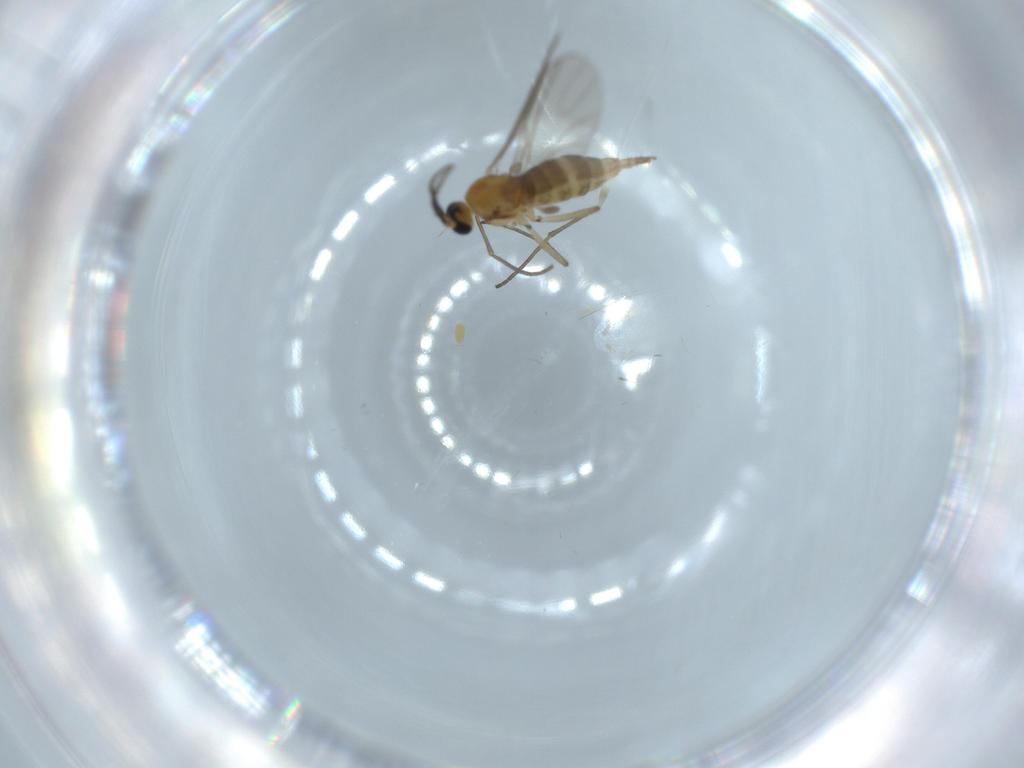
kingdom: Animalia
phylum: Arthropoda
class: Insecta
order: Diptera
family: Sciaridae
